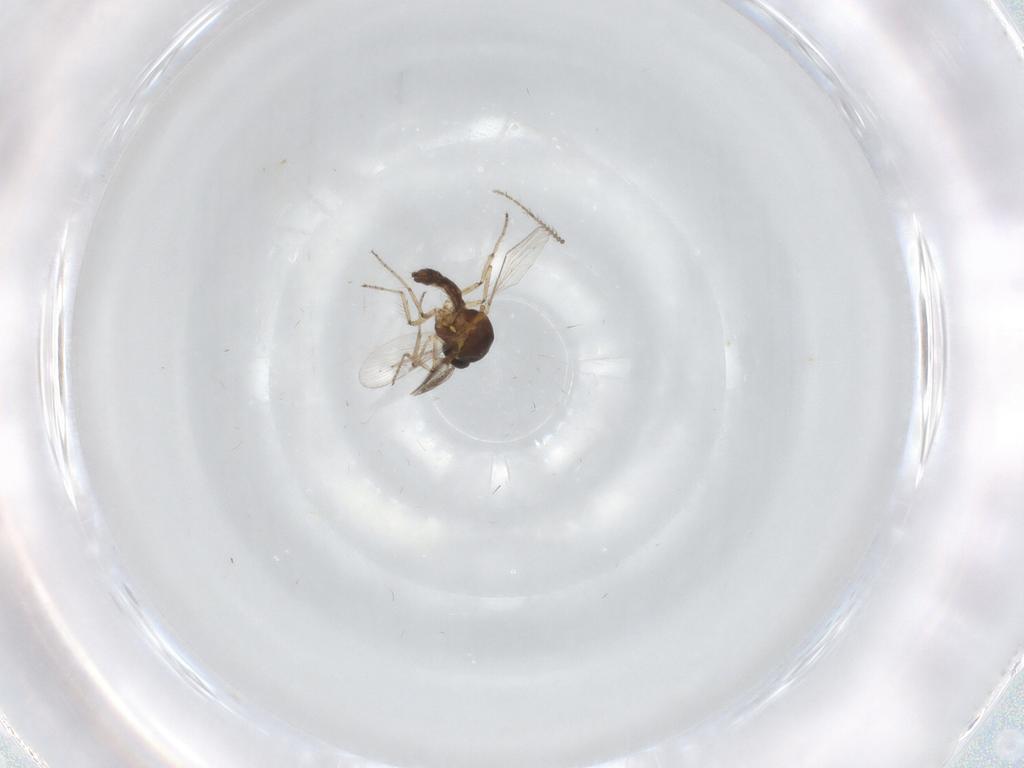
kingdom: Animalia
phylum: Arthropoda
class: Insecta
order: Diptera
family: Ceratopogonidae
